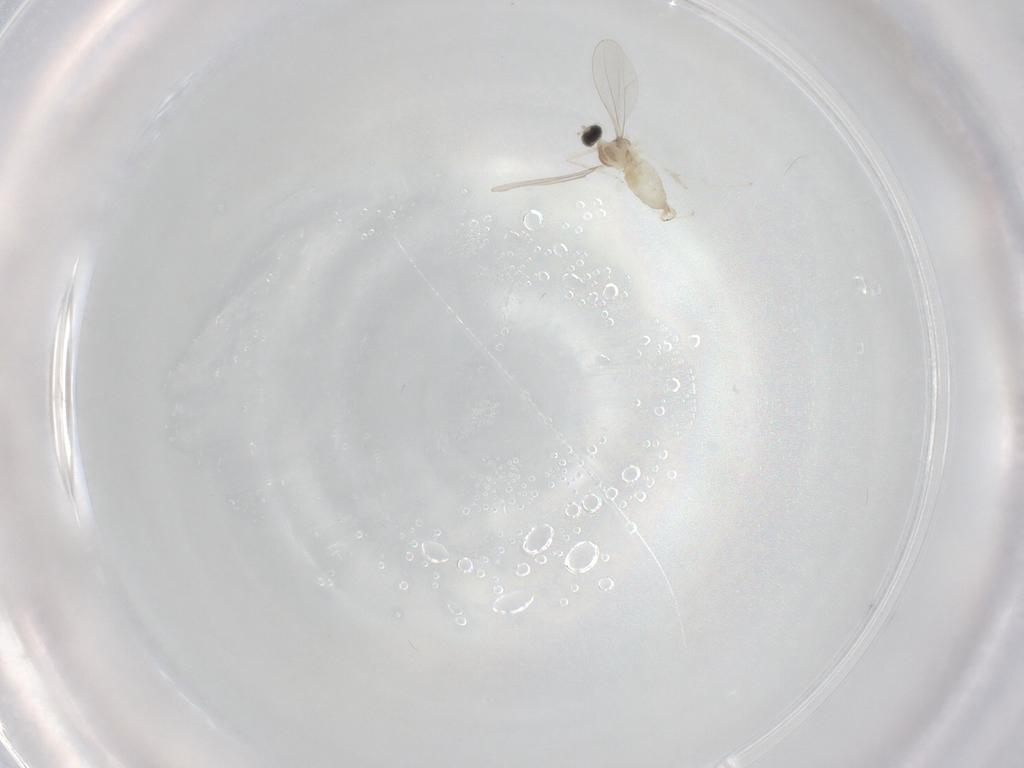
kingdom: Animalia
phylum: Arthropoda
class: Insecta
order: Diptera
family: Cecidomyiidae
